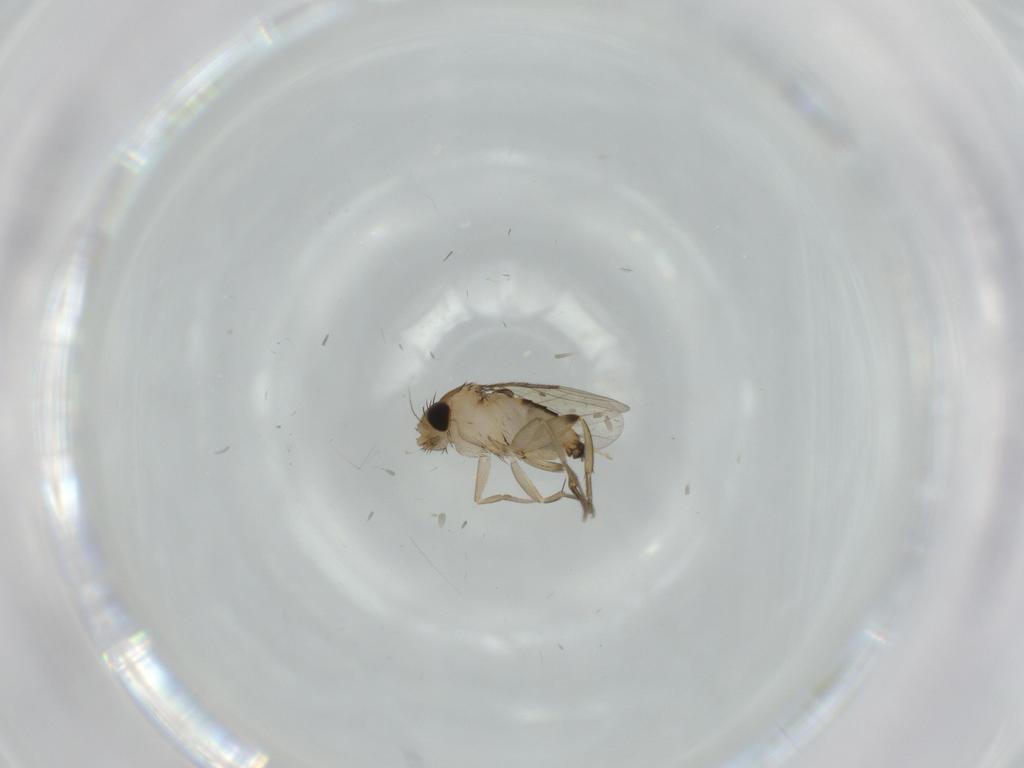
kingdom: Animalia
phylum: Arthropoda
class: Insecta
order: Diptera
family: Phoridae
